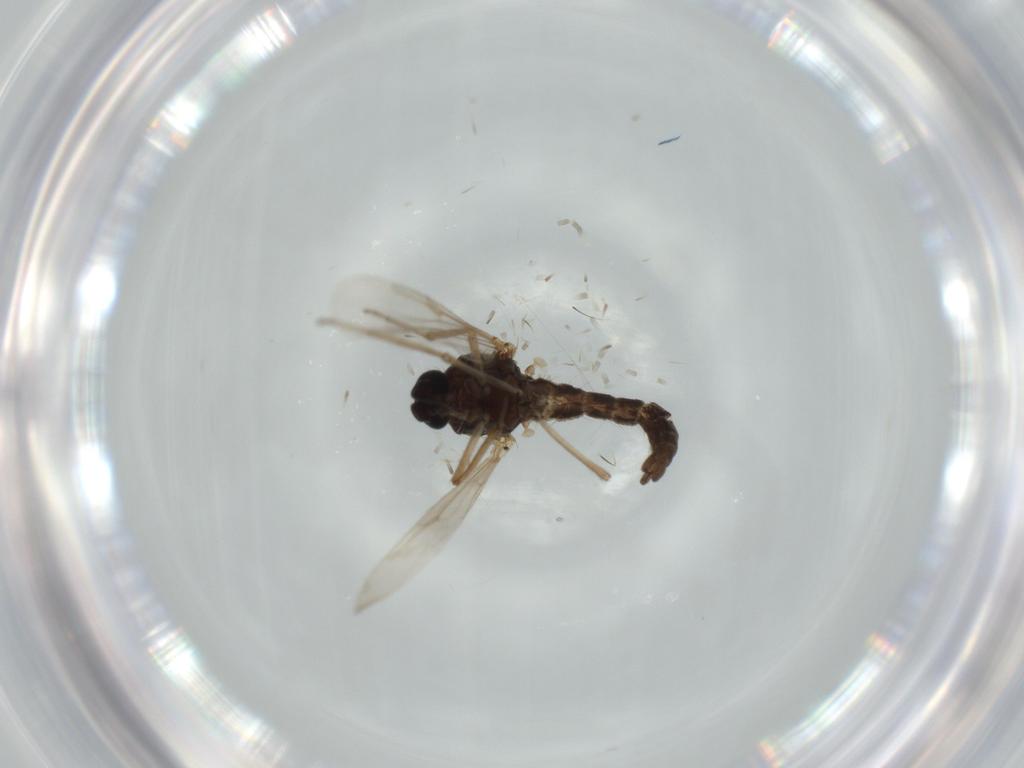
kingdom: Animalia
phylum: Arthropoda
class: Insecta
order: Diptera
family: Ceratopogonidae
